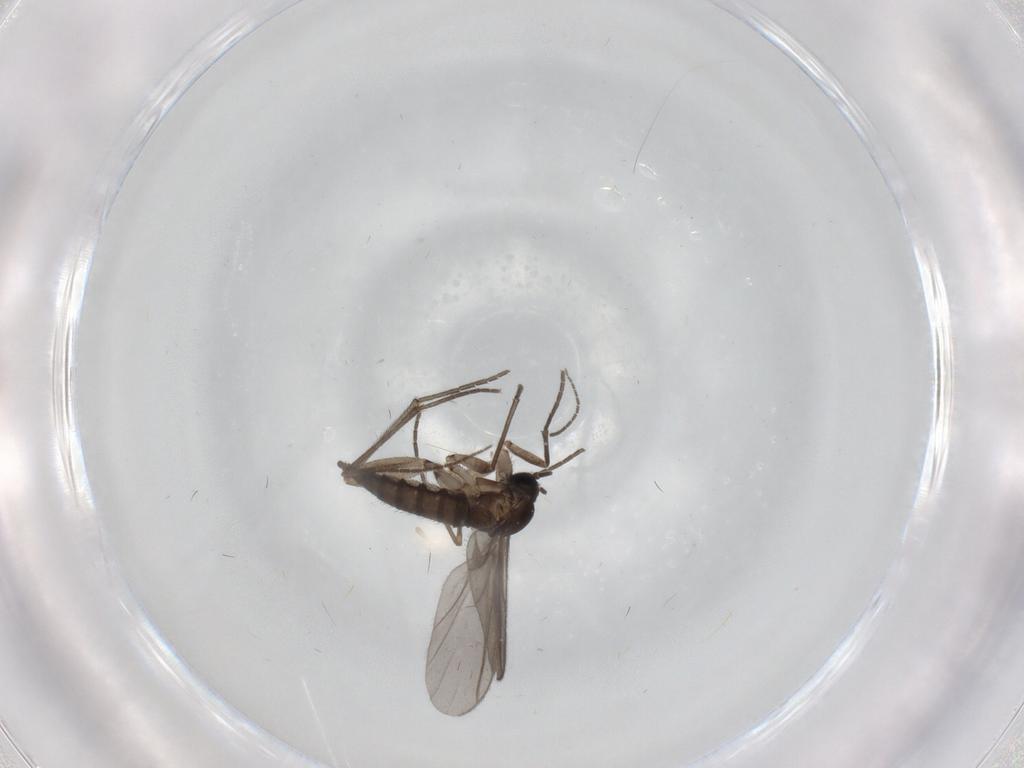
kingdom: Animalia
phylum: Arthropoda
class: Insecta
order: Diptera
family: Sciaridae
